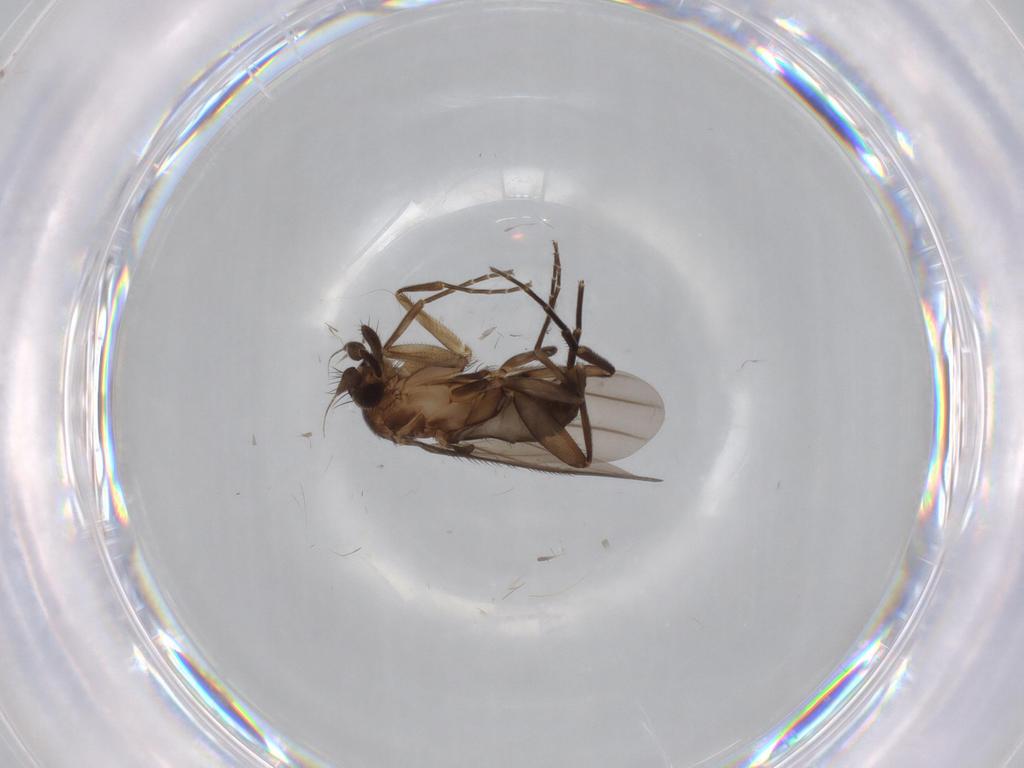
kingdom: Animalia
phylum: Arthropoda
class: Insecta
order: Diptera
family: Phoridae
